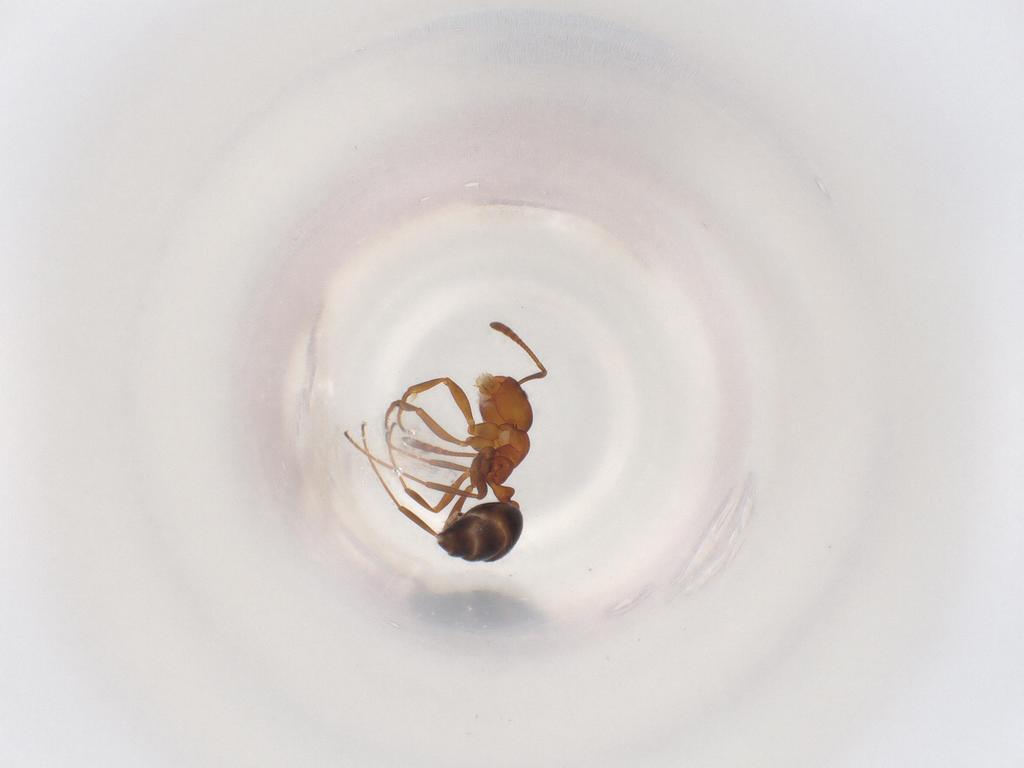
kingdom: Animalia
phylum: Arthropoda
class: Insecta
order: Hymenoptera
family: Formicidae
